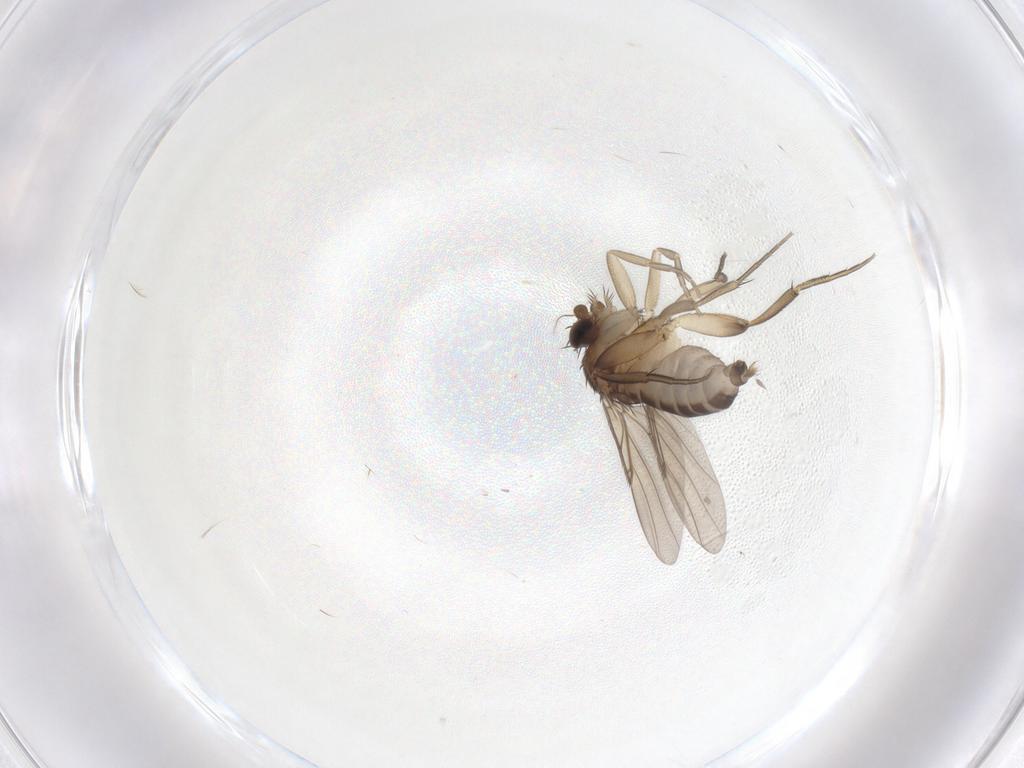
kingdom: Animalia
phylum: Arthropoda
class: Insecta
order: Diptera
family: Phoridae
